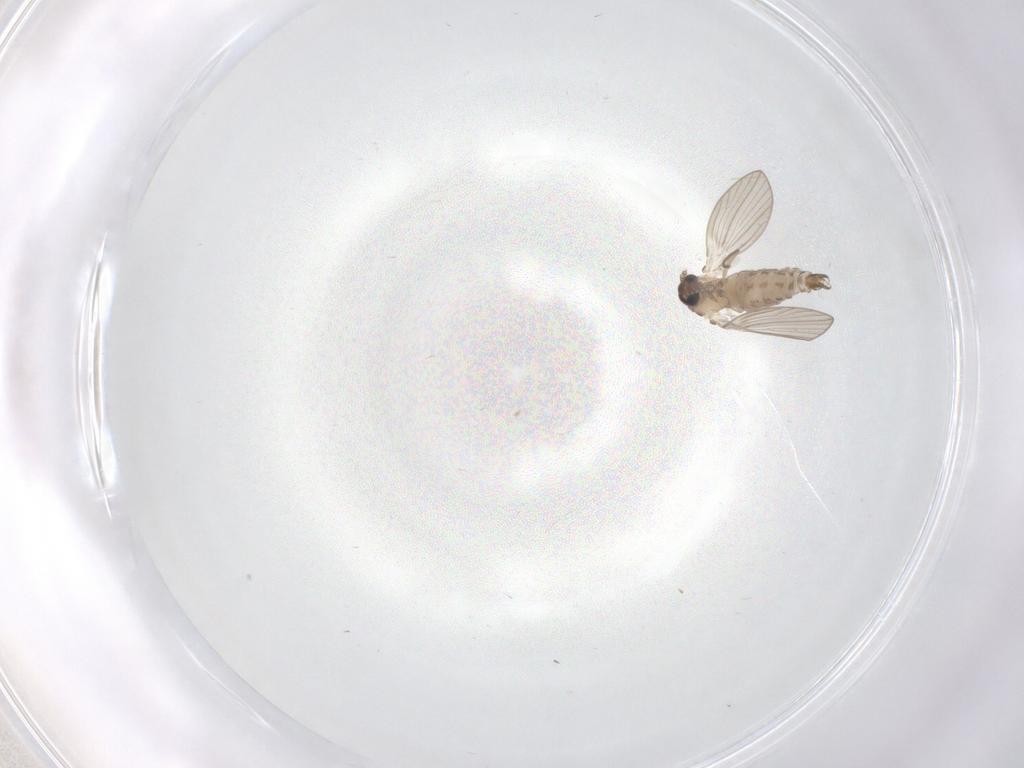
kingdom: Animalia
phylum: Arthropoda
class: Insecta
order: Diptera
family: Psychodidae
